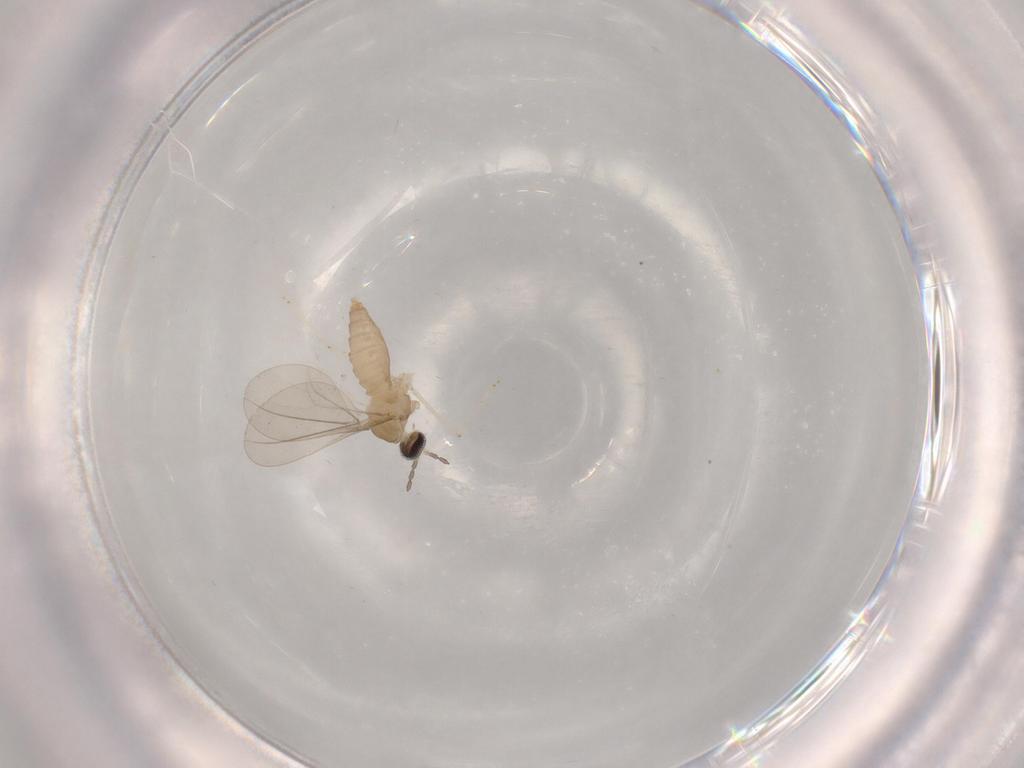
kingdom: Animalia
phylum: Arthropoda
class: Insecta
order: Diptera
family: Cecidomyiidae
